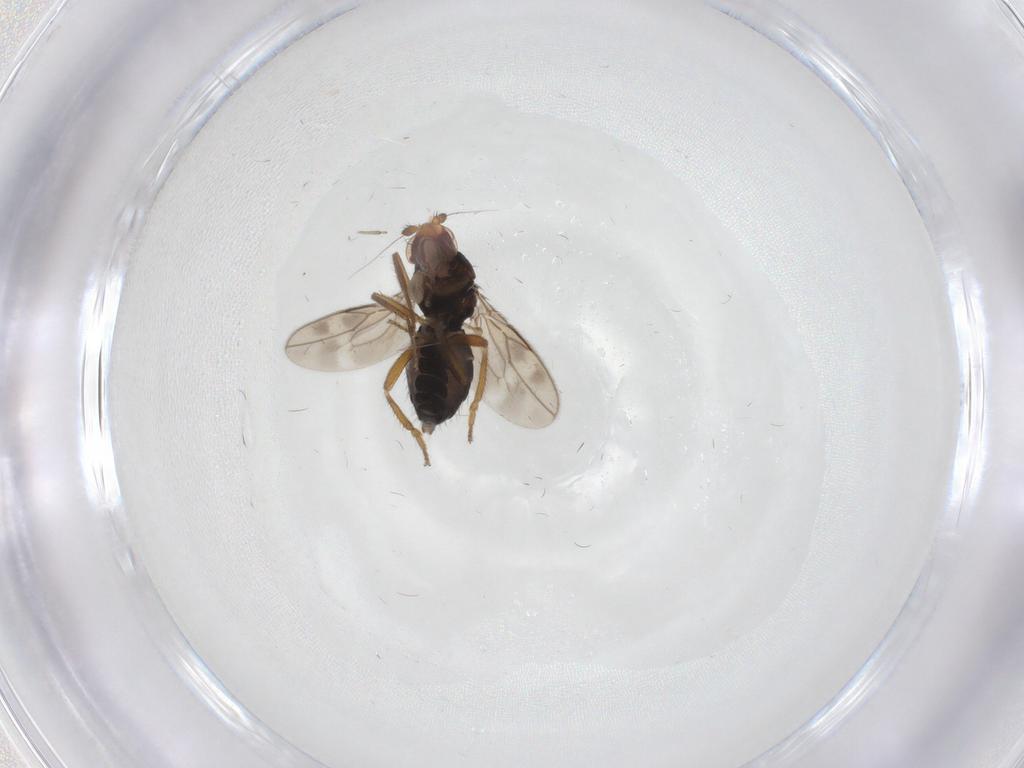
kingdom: Animalia
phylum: Arthropoda
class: Insecta
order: Diptera
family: Sphaeroceridae
